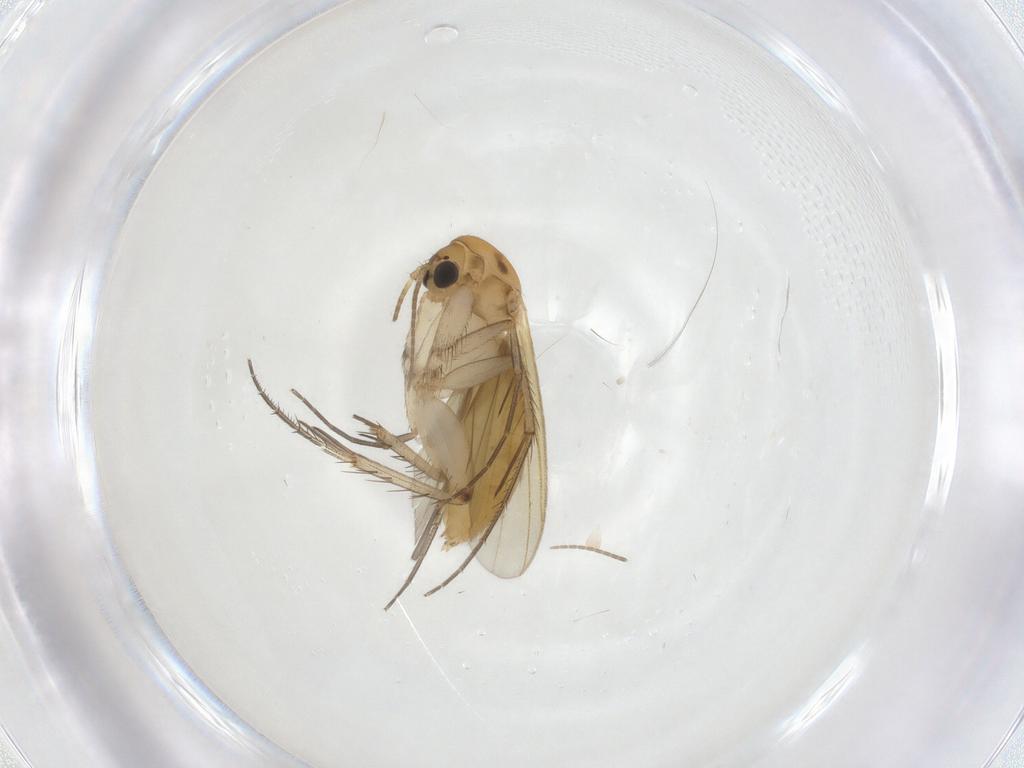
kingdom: Animalia
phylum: Arthropoda
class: Insecta
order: Diptera
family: Mycetophilidae
